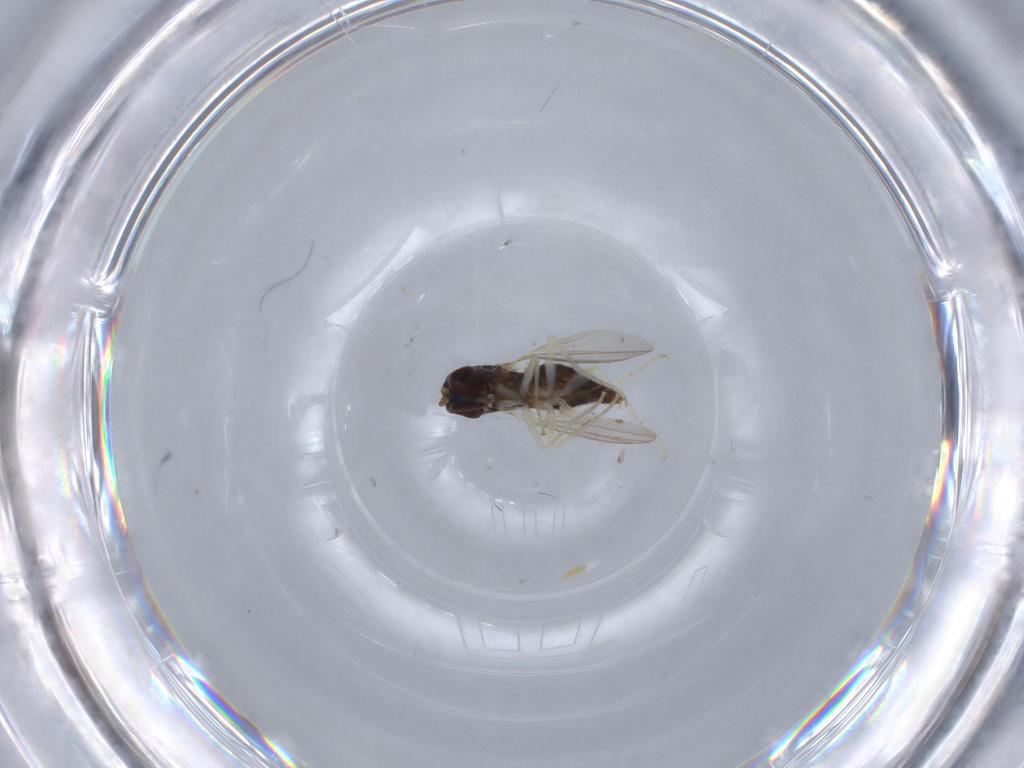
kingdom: Animalia
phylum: Arthropoda
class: Insecta
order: Diptera
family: Dolichopodidae
